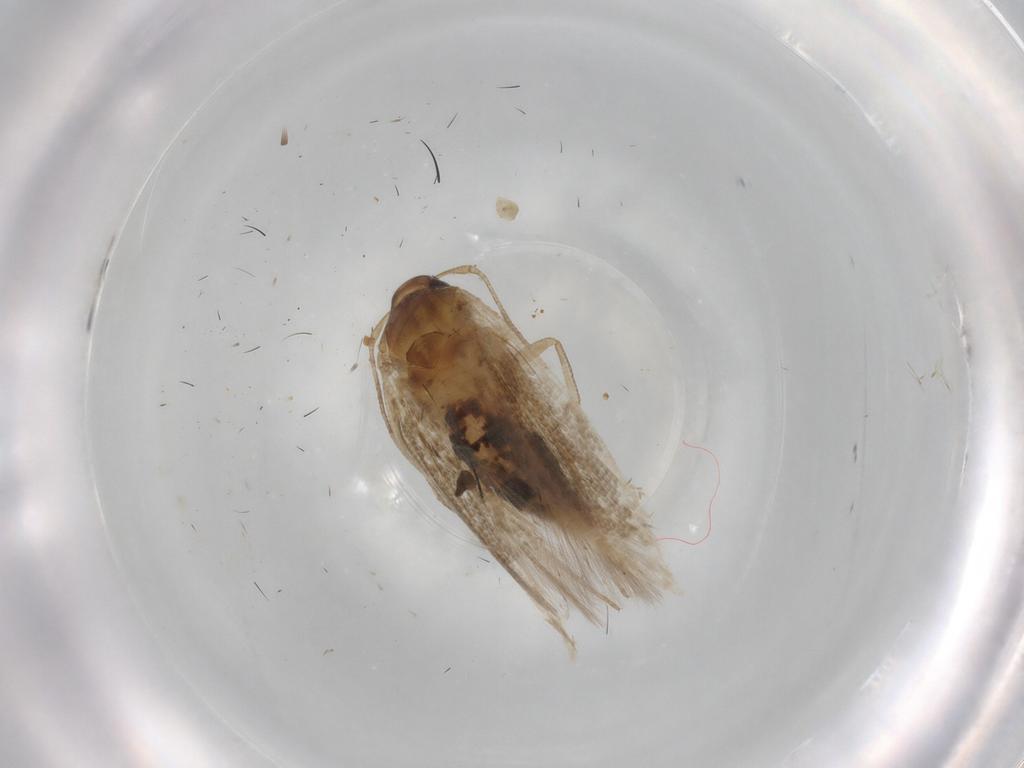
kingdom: Animalia
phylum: Arthropoda
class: Insecta
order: Lepidoptera
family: Cosmopterigidae
